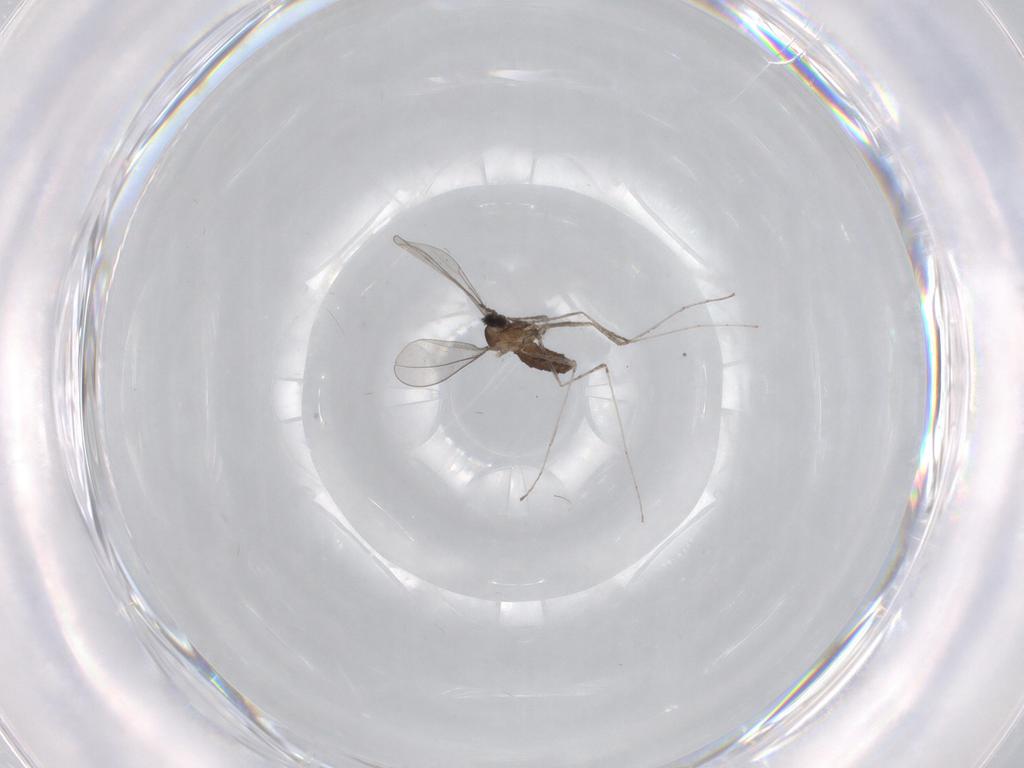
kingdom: Animalia
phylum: Arthropoda
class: Insecta
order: Diptera
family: Cecidomyiidae
